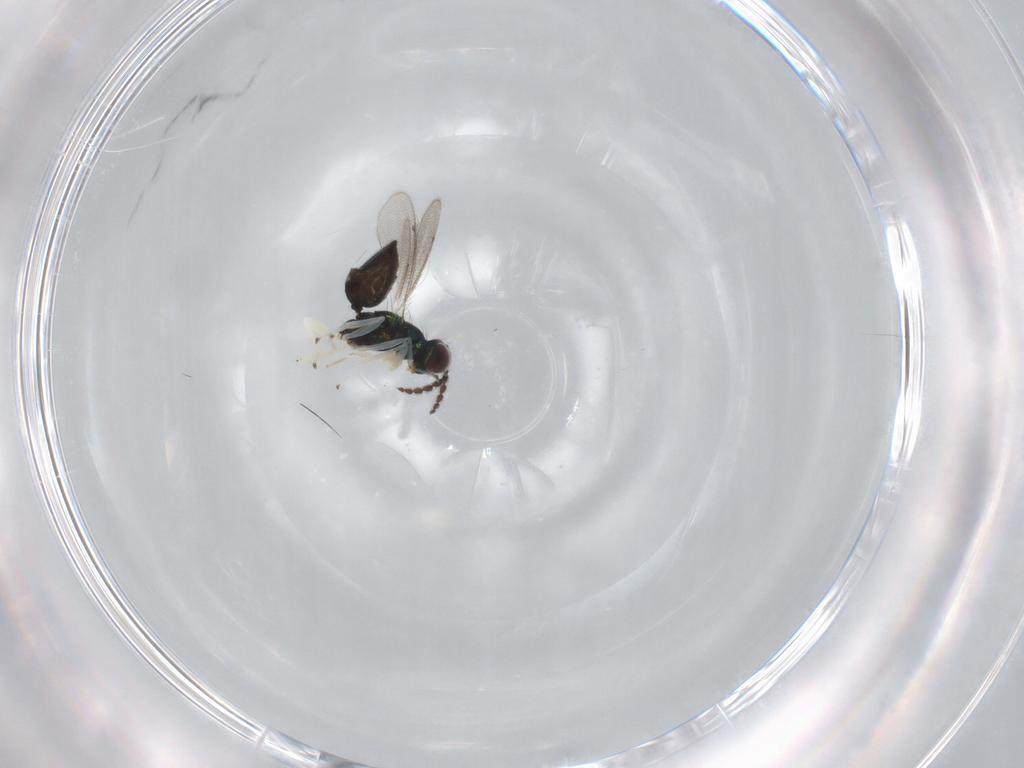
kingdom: Animalia
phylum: Arthropoda
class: Insecta
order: Hymenoptera
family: Eulophidae
